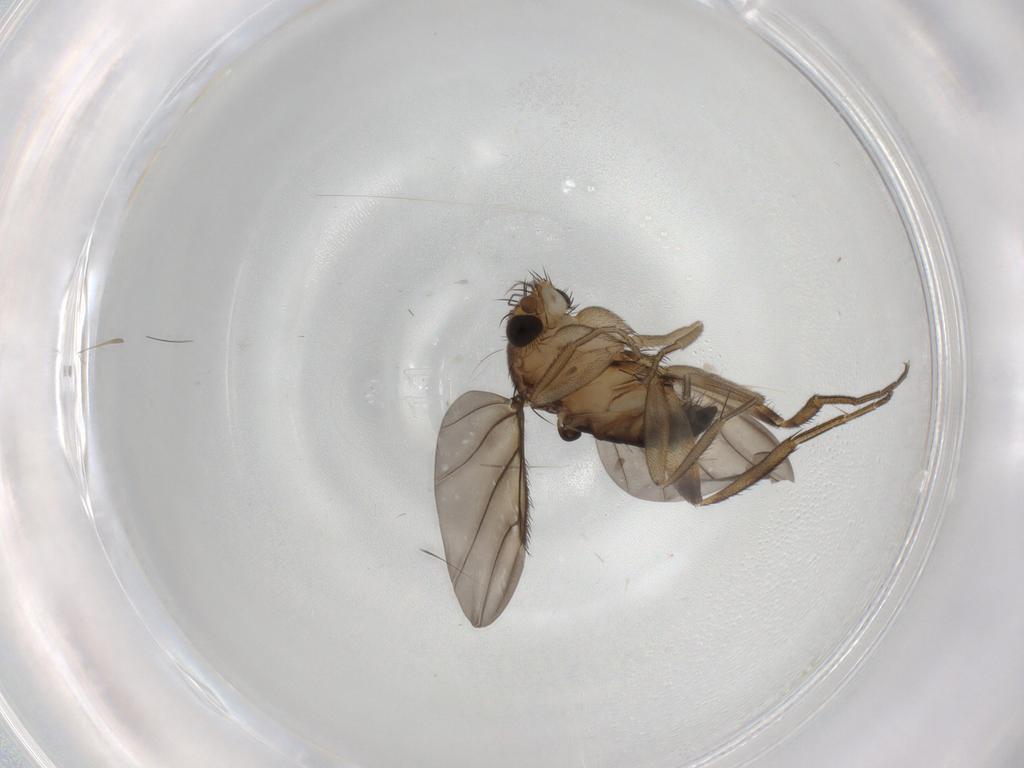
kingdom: Animalia
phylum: Arthropoda
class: Insecta
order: Diptera
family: Phoridae
